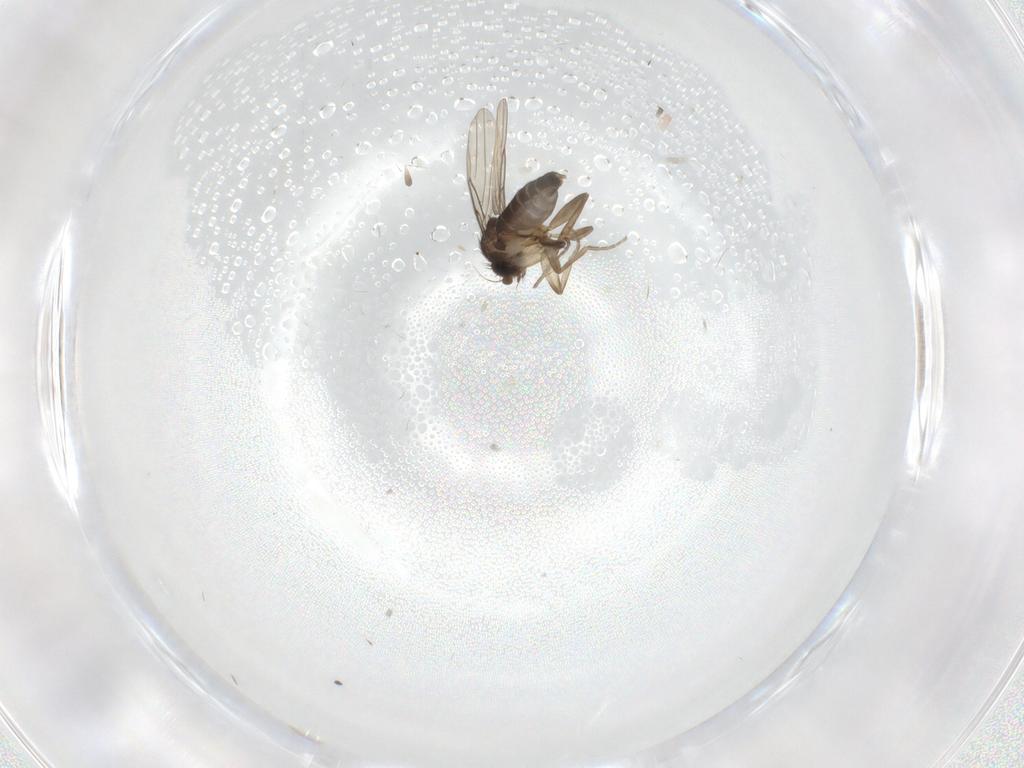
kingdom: Animalia
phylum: Arthropoda
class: Insecta
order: Diptera
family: Phoridae
